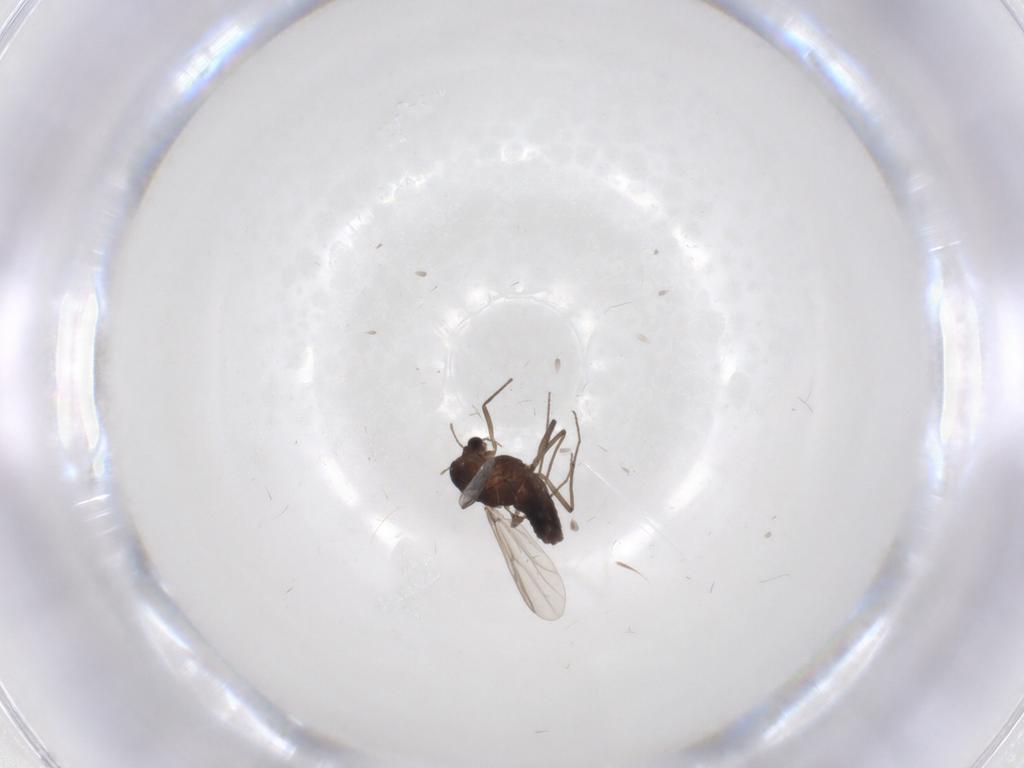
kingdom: Animalia
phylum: Arthropoda
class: Insecta
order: Diptera
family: Chironomidae
